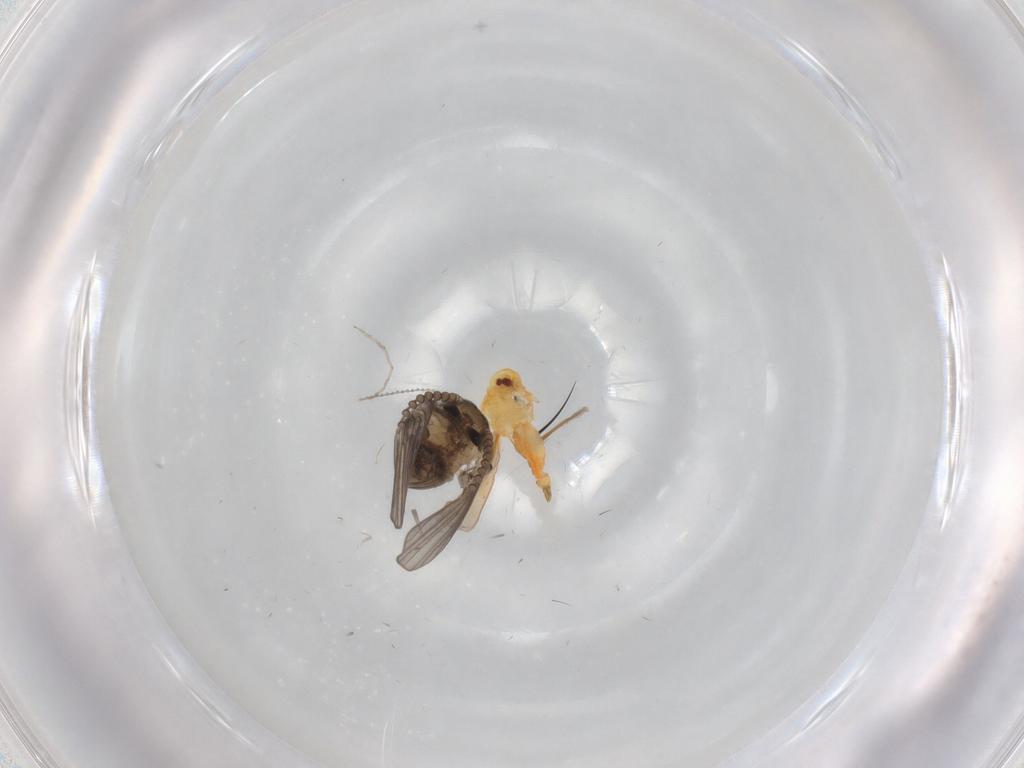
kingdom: Animalia
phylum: Arthropoda
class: Insecta
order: Hemiptera
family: Aleyrodidae
